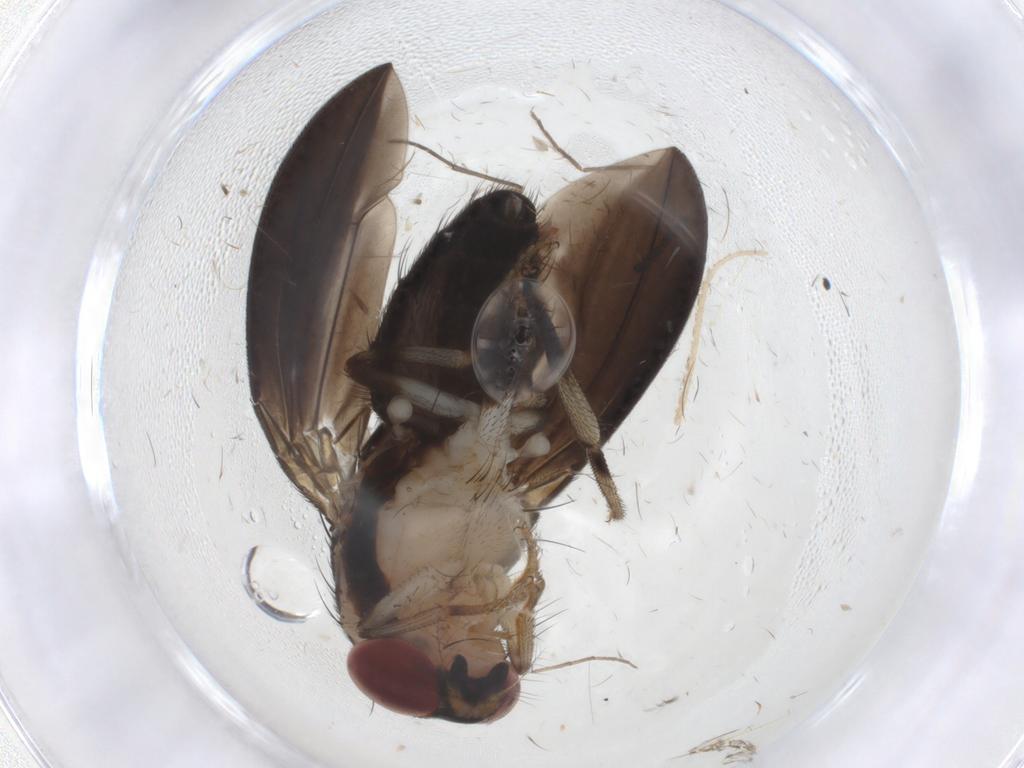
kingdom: Animalia
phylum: Arthropoda
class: Insecta
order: Diptera
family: Drosophilidae
